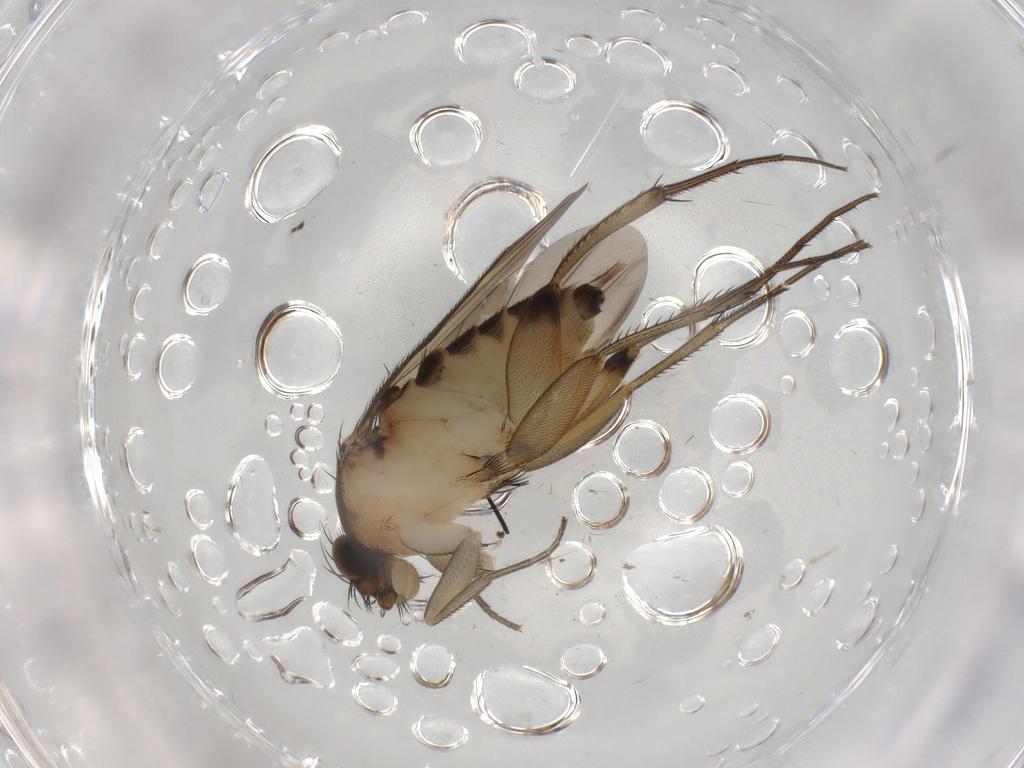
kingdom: Animalia
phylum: Arthropoda
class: Insecta
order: Diptera
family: Phoridae
